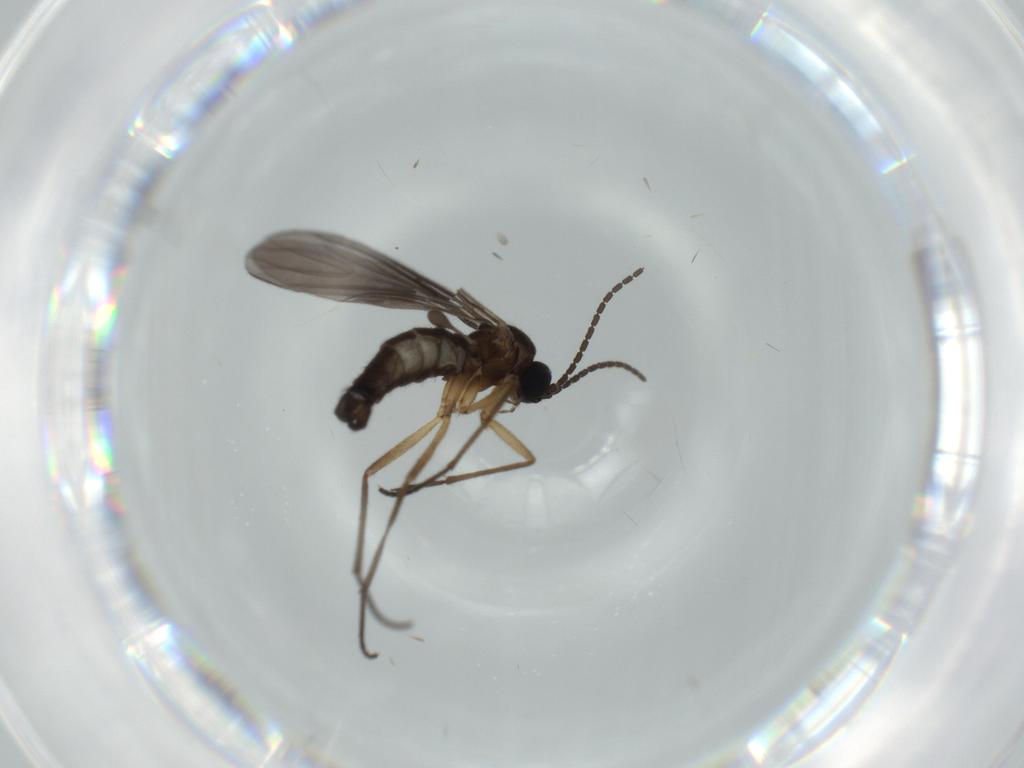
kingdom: Animalia
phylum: Arthropoda
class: Insecta
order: Diptera
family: Sciaridae
